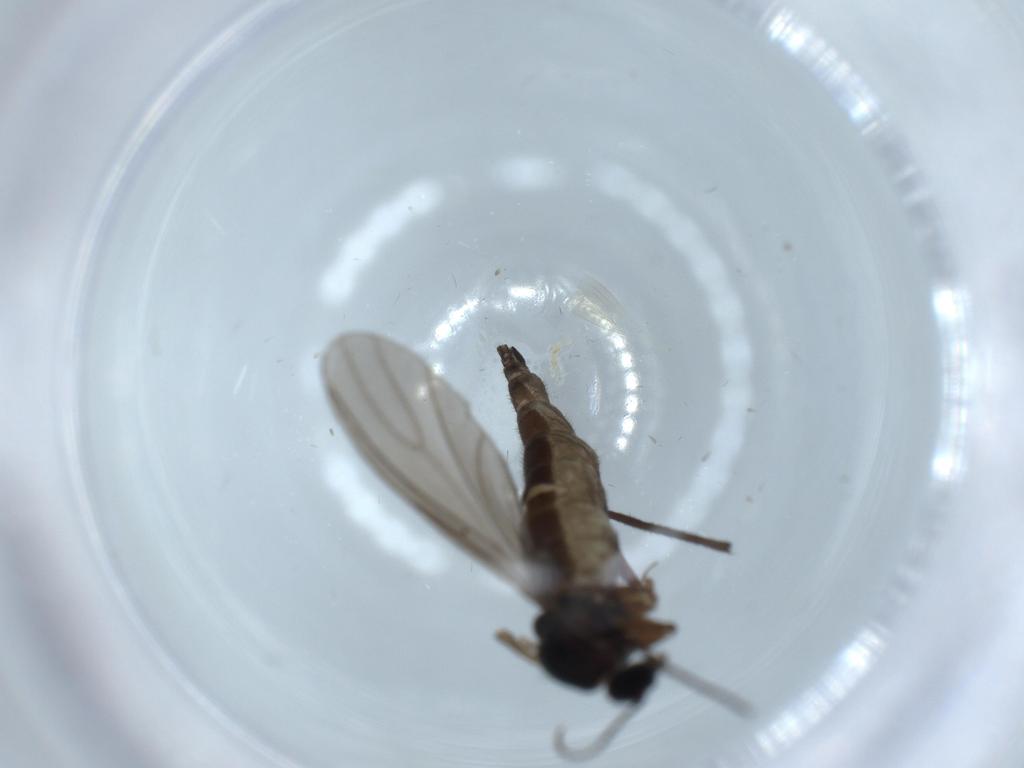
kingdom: Animalia
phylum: Arthropoda
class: Insecta
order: Diptera
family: Sciaridae
